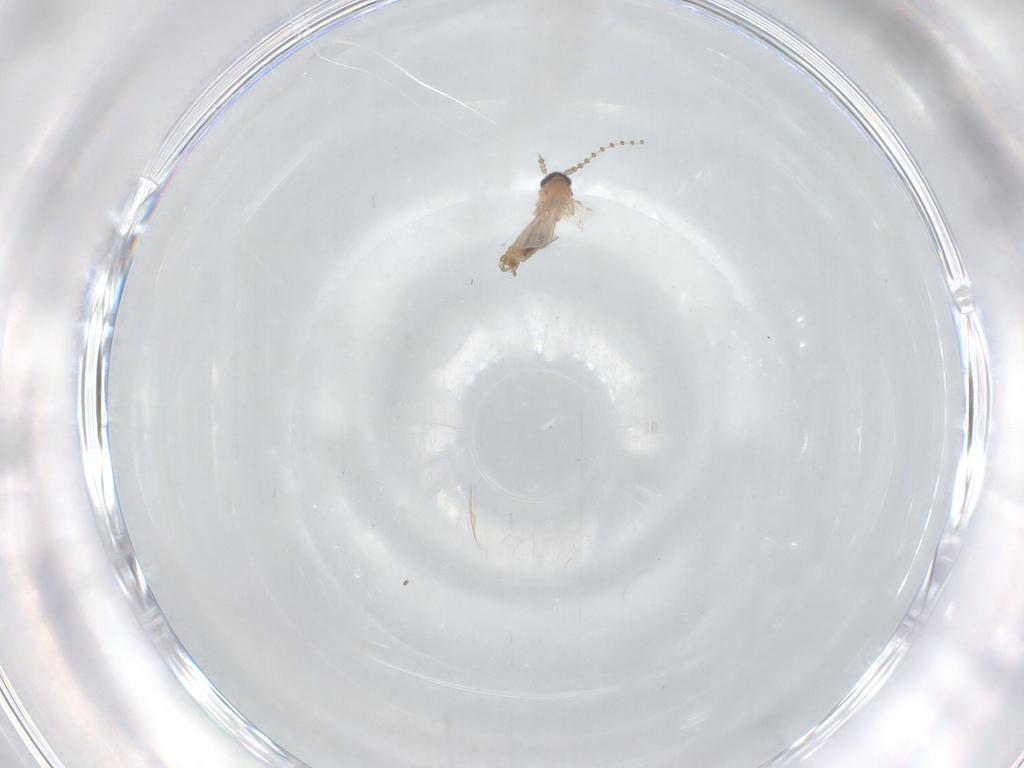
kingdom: Animalia
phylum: Arthropoda
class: Insecta
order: Diptera
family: Psychodidae
